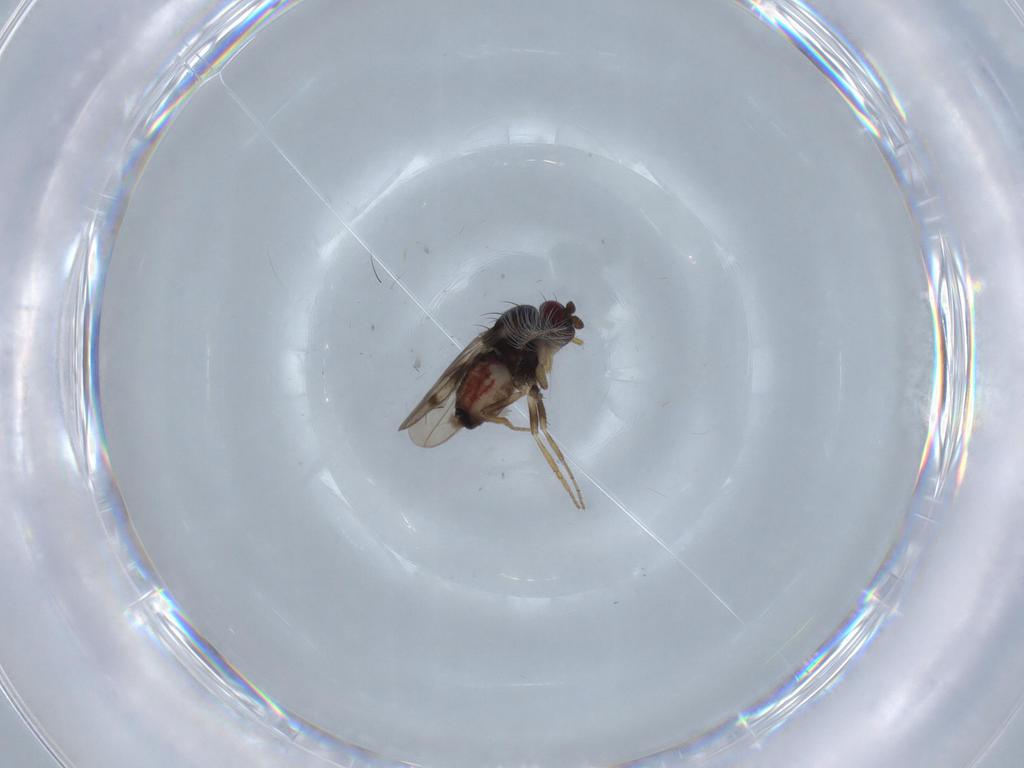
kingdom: Animalia
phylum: Arthropoda
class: Insecta
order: Diptera
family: Sphaeroceridae
